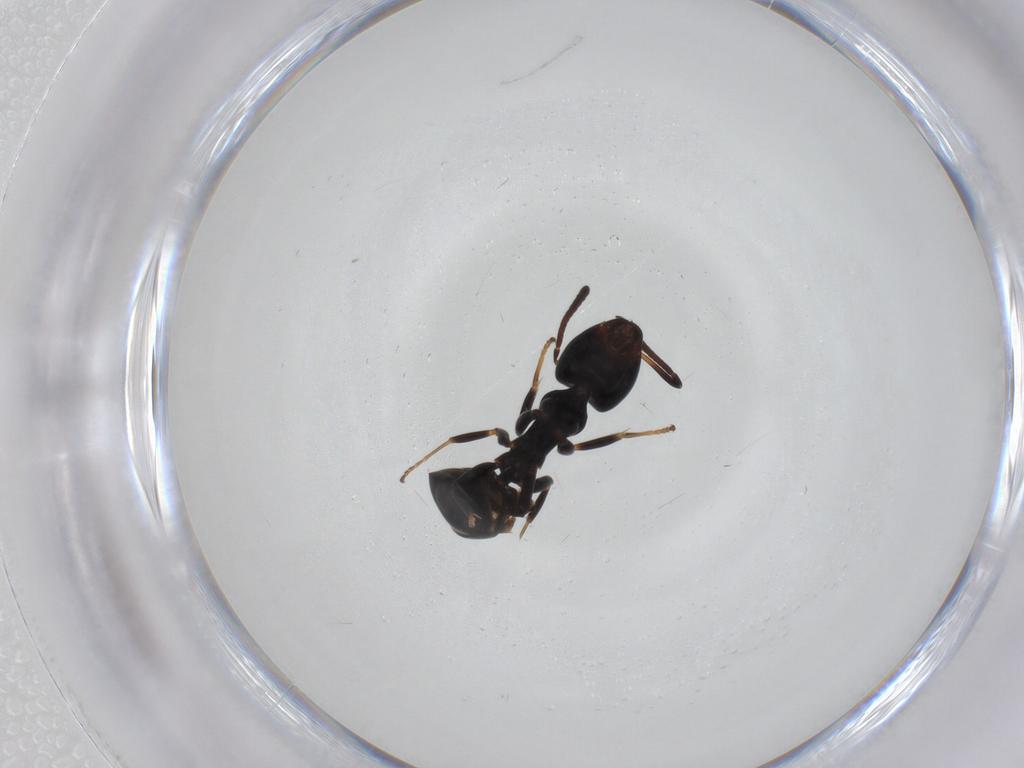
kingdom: Animalia
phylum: Arthropoda
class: Insecta
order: Hymenoptera
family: Formicidae
